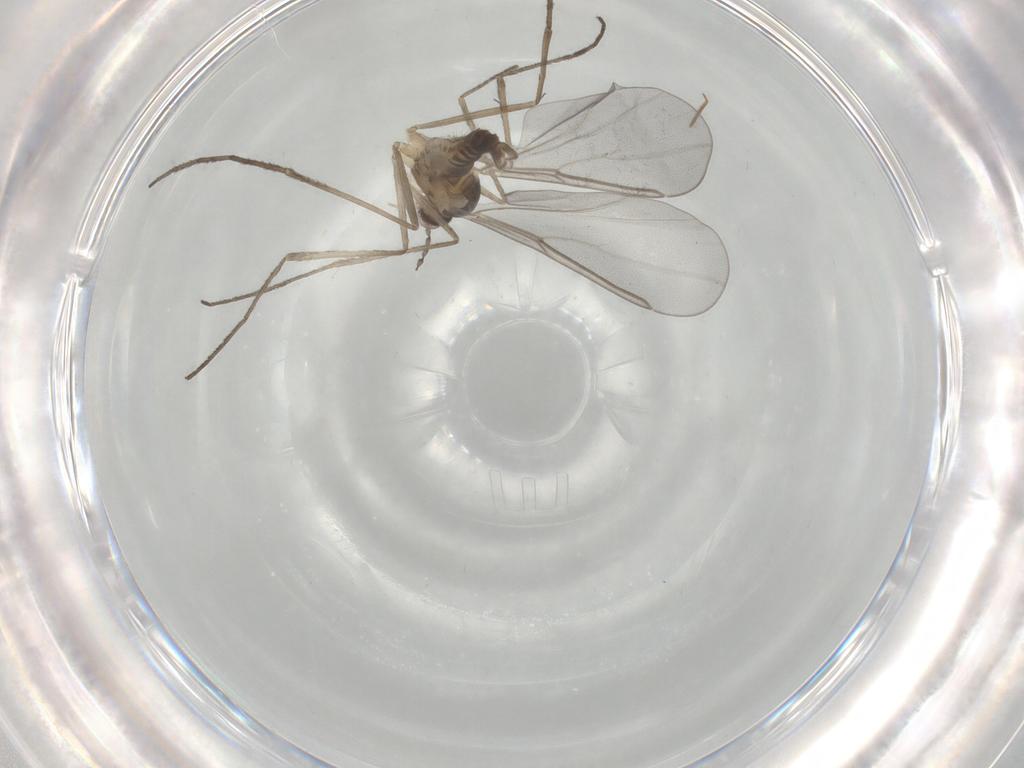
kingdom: Animalia
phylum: Arthropoda
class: Insecta
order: Diptera
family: Cecidomyiidae
